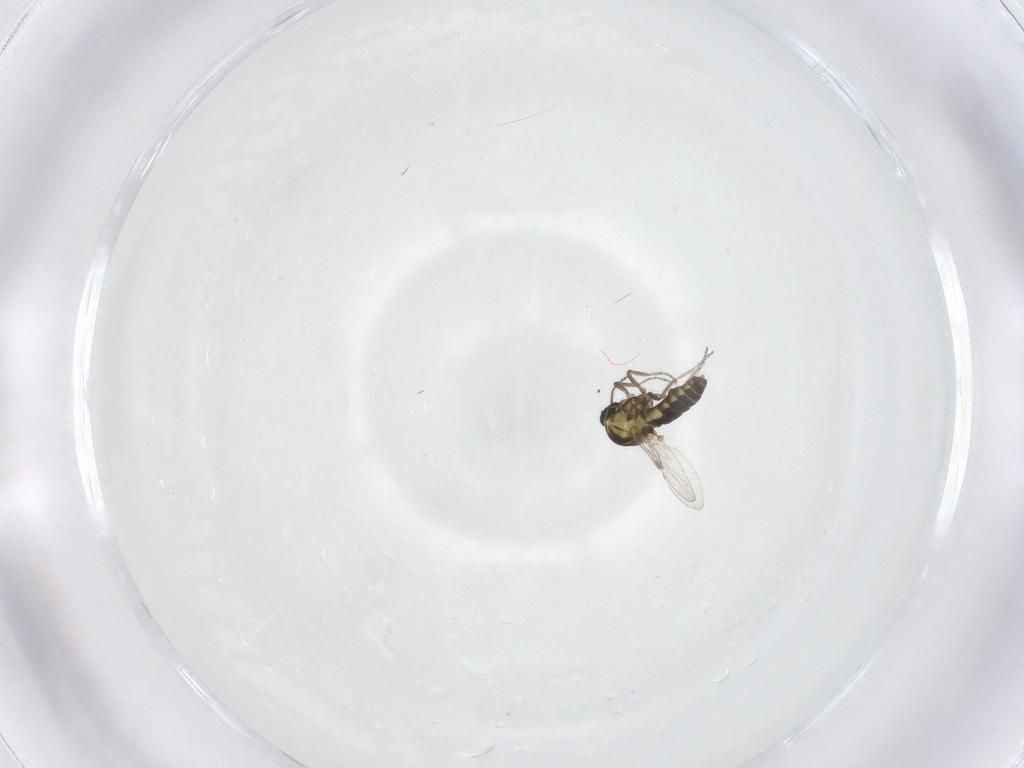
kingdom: Animalia
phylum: Arthropoda
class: Insecta
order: Diptera
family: Ceratopogonidae
